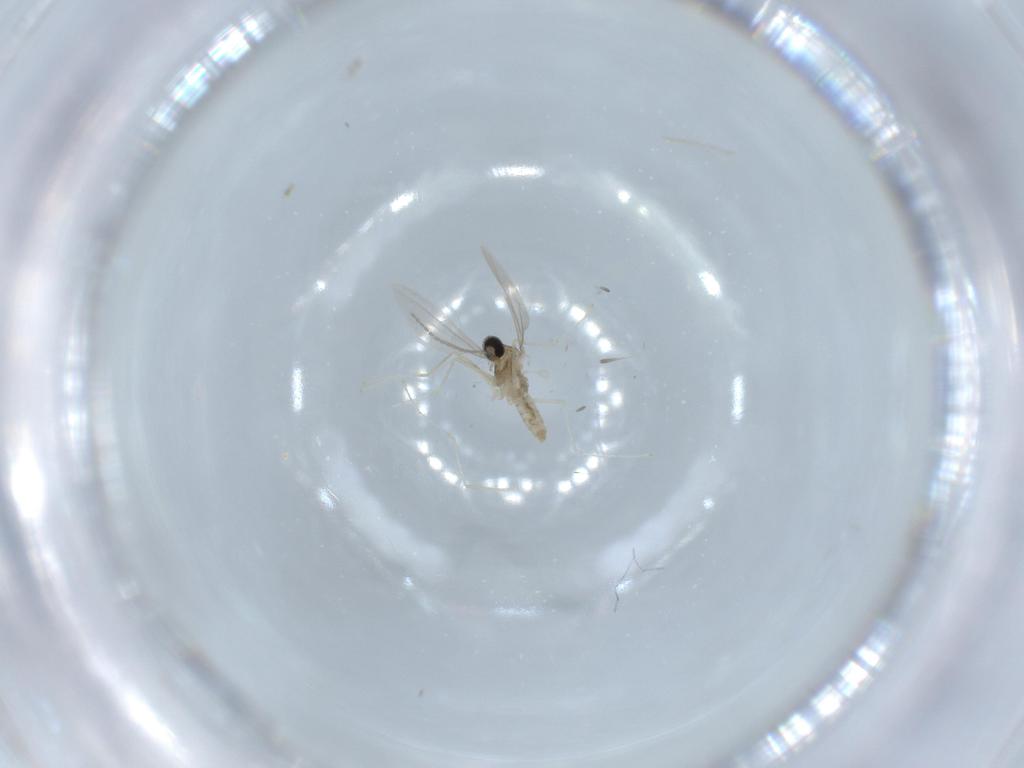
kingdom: Animalia
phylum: Arthropoda
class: Insecta
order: Diptera
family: Cecidomyiidae
